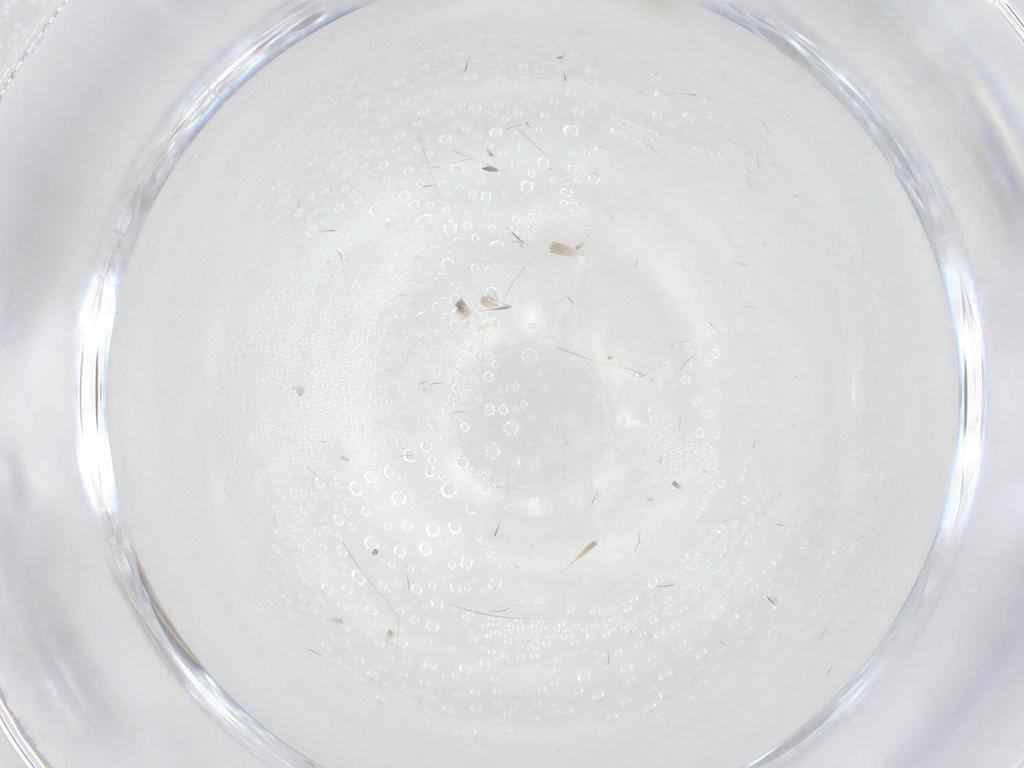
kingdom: Animalia
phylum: Arthropoda
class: Insecta
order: Diptera
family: Cecidomyiidae
